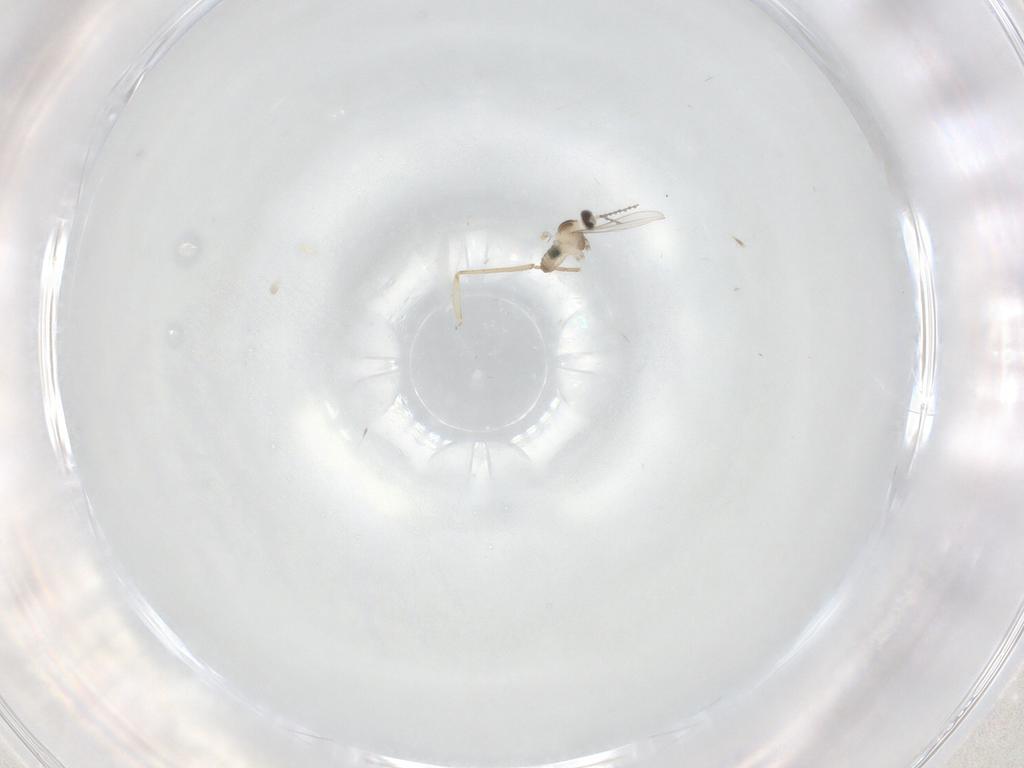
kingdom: Animalia
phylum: Arthropoda
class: Insecta
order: Diptera
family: Cecidomyiidae
